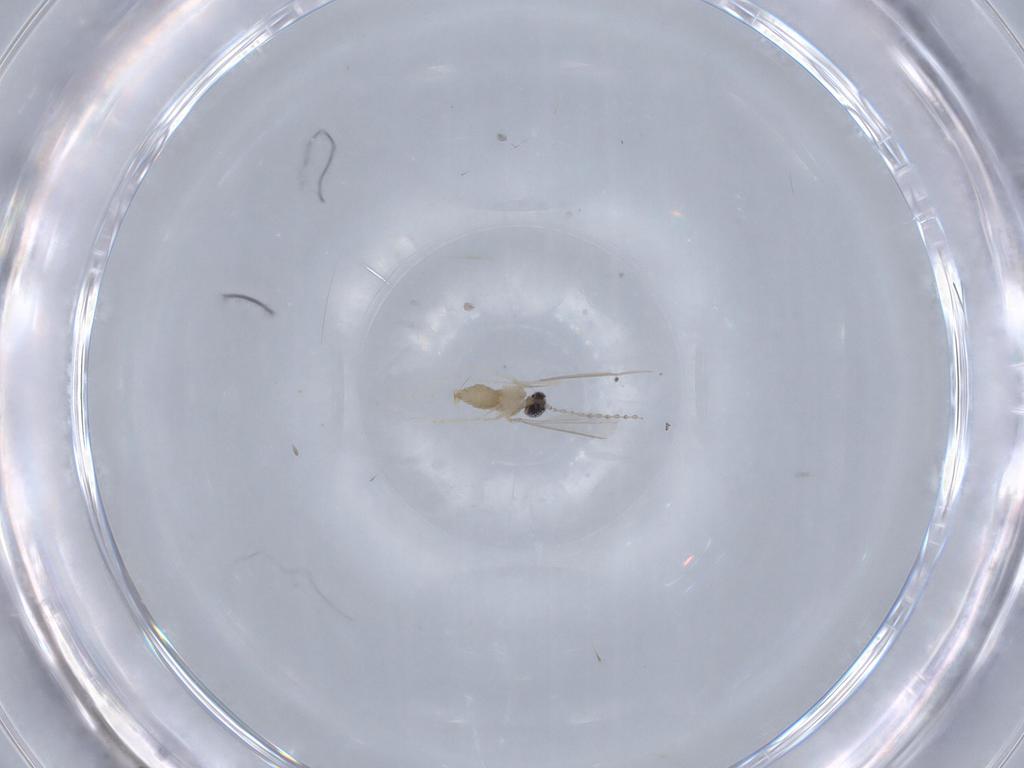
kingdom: Animalia
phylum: Arthropoda
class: Insecta
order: Diptera
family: Cecidomyiidae
